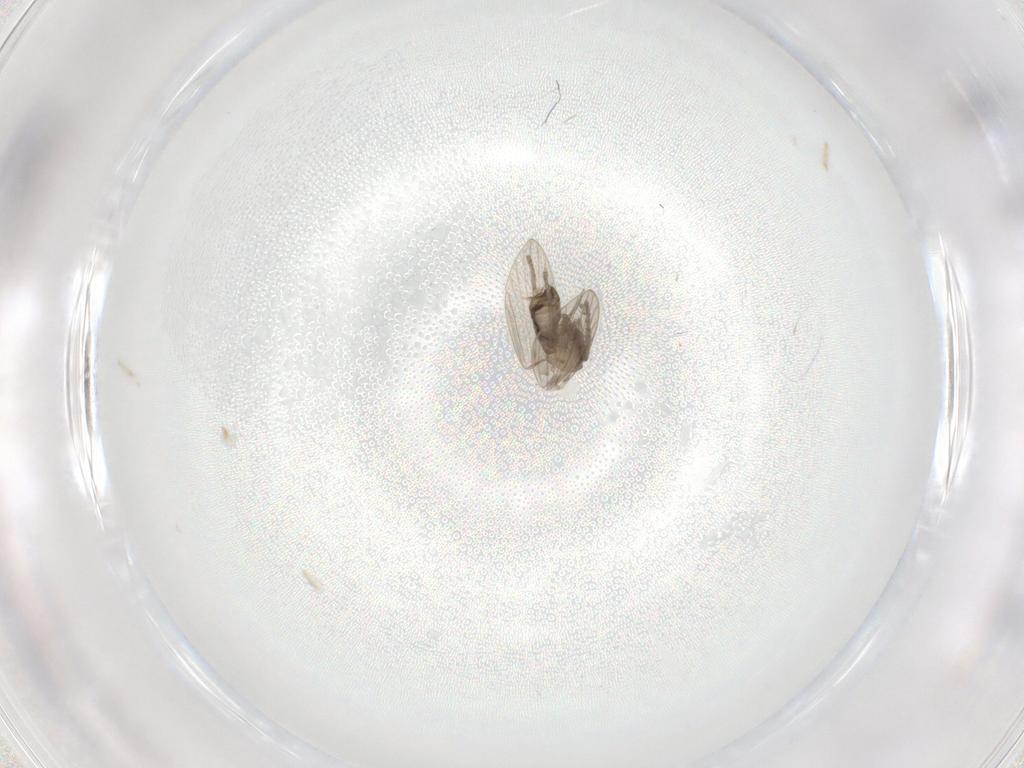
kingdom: Animalia
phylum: Arthropoda
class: Insecta
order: Diptera
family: Psychodidae
